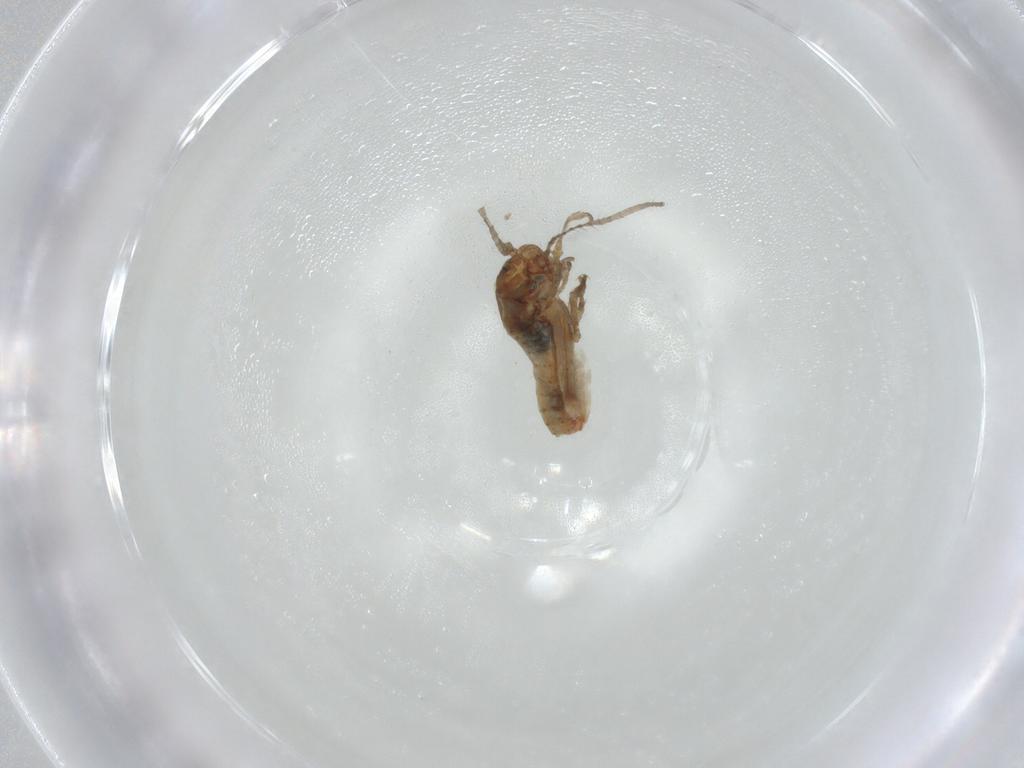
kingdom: Animalia
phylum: Arthropoda
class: Insecta
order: Orthoptera
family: Mogoplistidae
